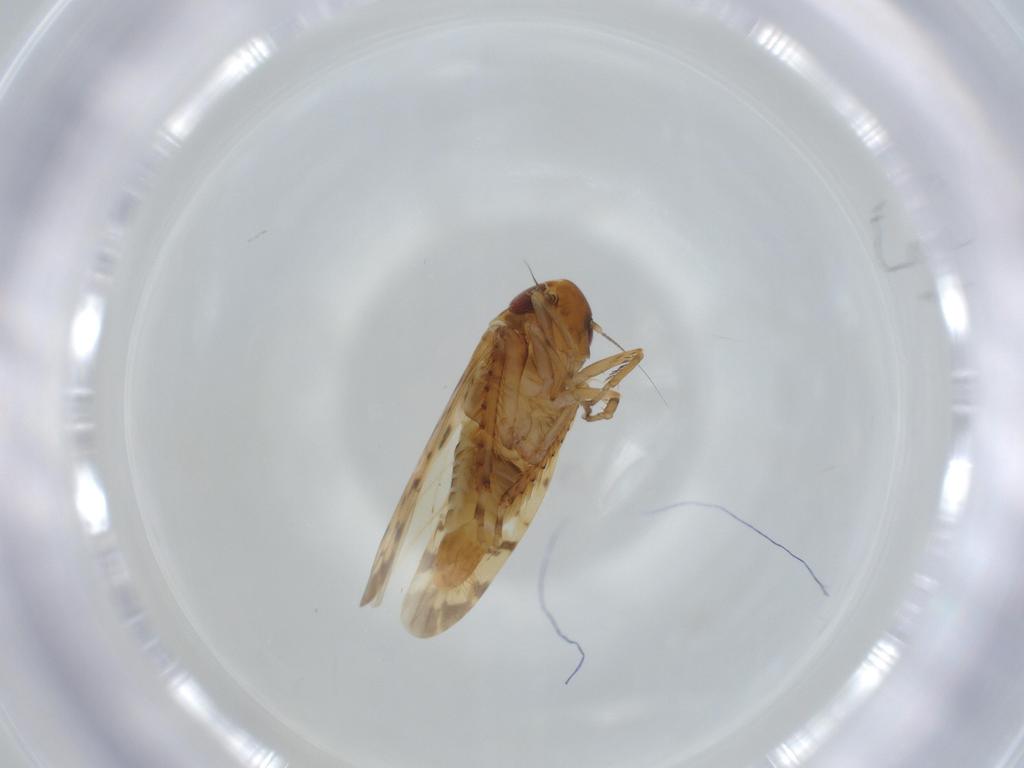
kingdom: Animalia
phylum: Arthropoda
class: Insecta
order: Hemiptera
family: Cicadellidae
